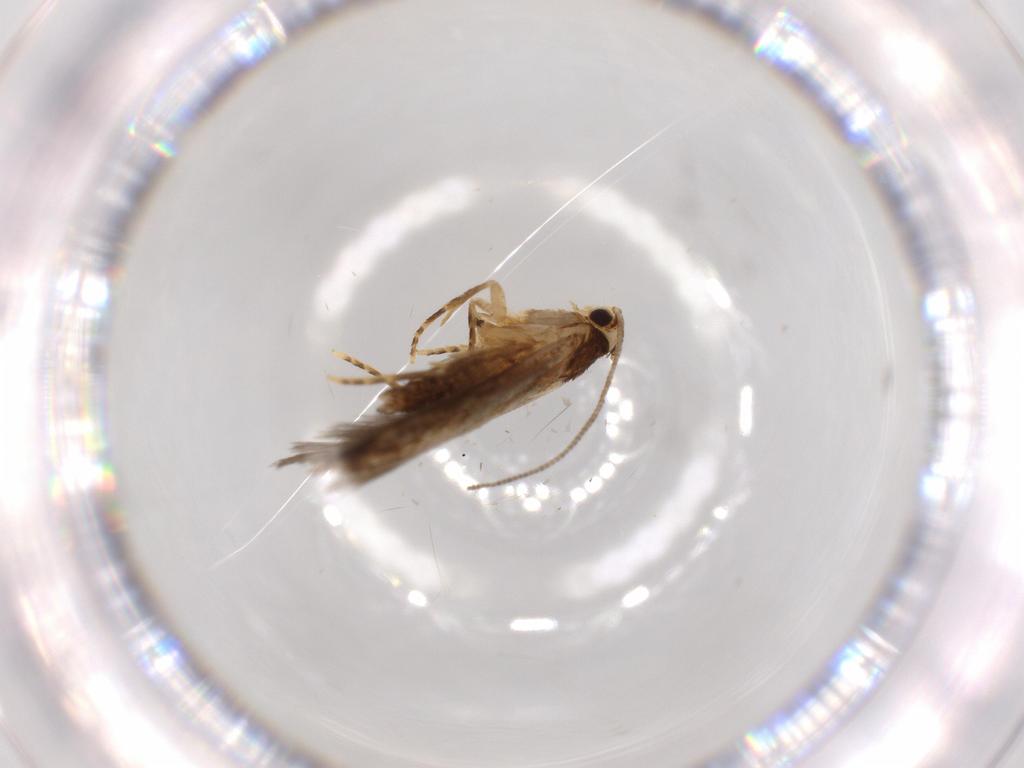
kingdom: Animalia
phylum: Arthropoda
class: Insecta
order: Lepidoptera
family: Tineidae
